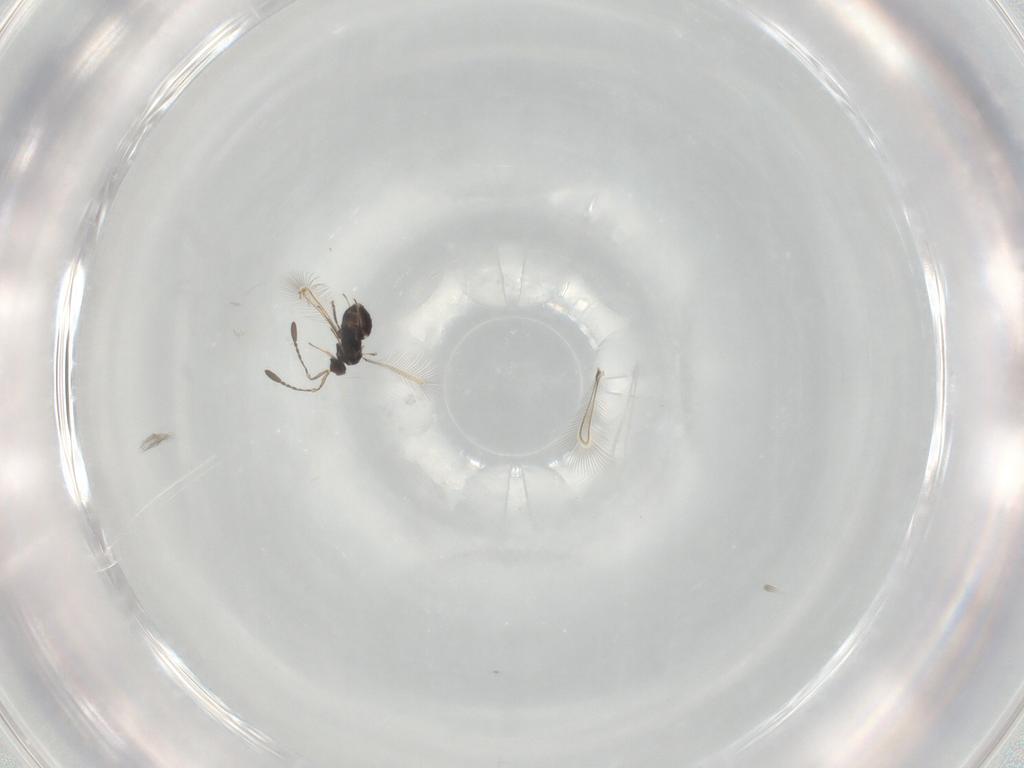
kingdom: Animalia
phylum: Arthropoda
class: Insecta
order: Hymenoptera
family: Mymaridae
